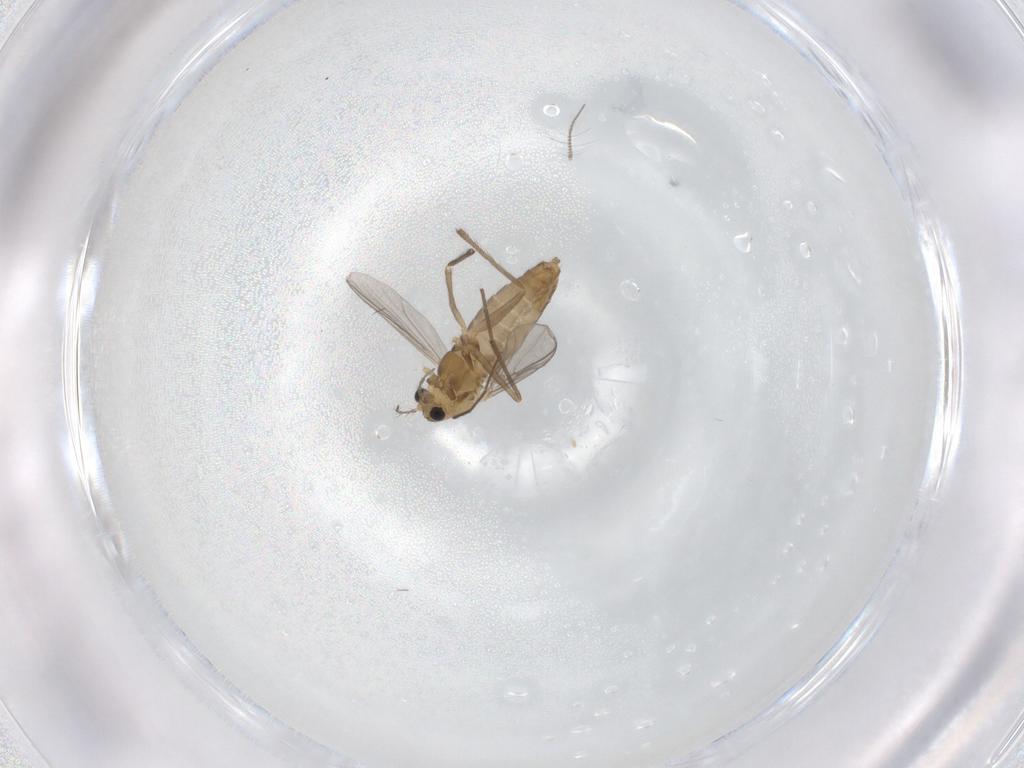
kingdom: Animalia
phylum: Arthropoda
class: Insecta
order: Diptera
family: Chironomidae
